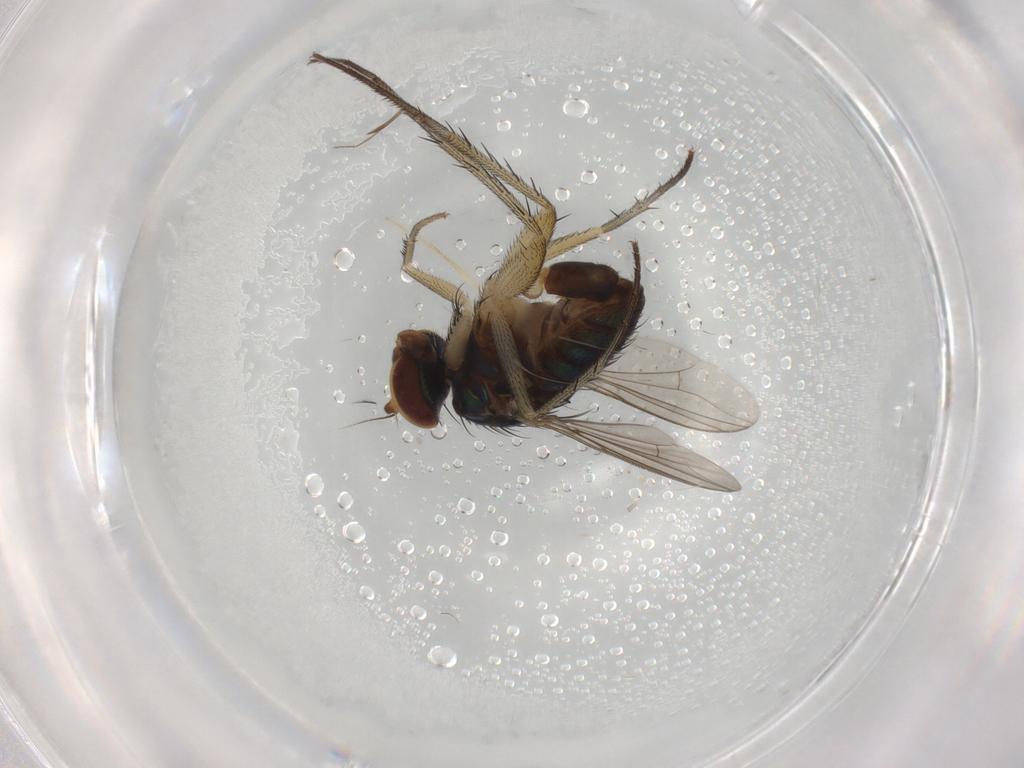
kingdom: Animalia
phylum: Arthropoda
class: Insecta
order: Diptera
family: Dolichopodidae
